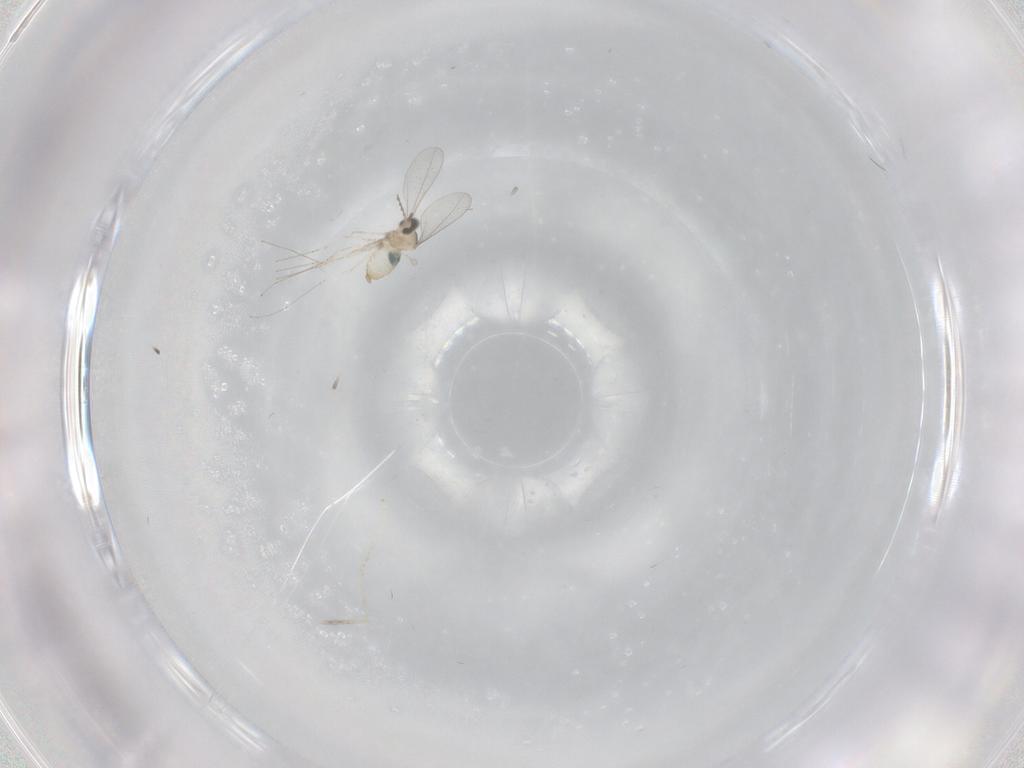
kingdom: Animalia
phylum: Arthropoda
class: Insecta
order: Diptera
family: Cecidomyiidae
